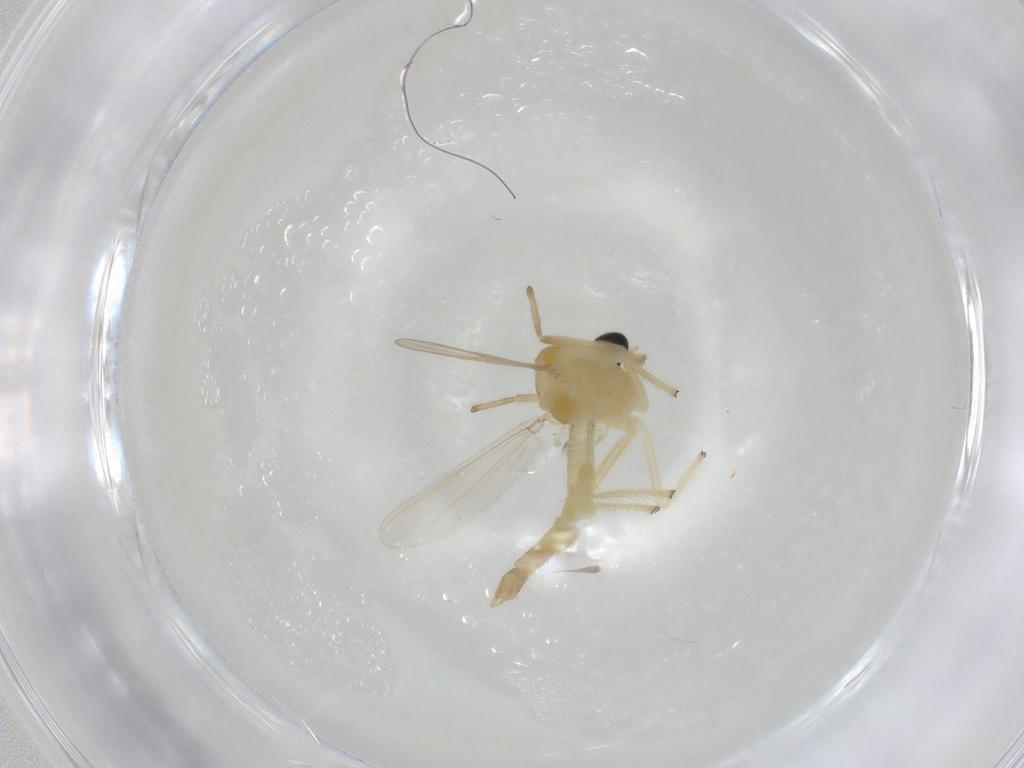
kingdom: Animalia
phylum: Arthropoda
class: Insecta
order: Diptera
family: Chironomidae
